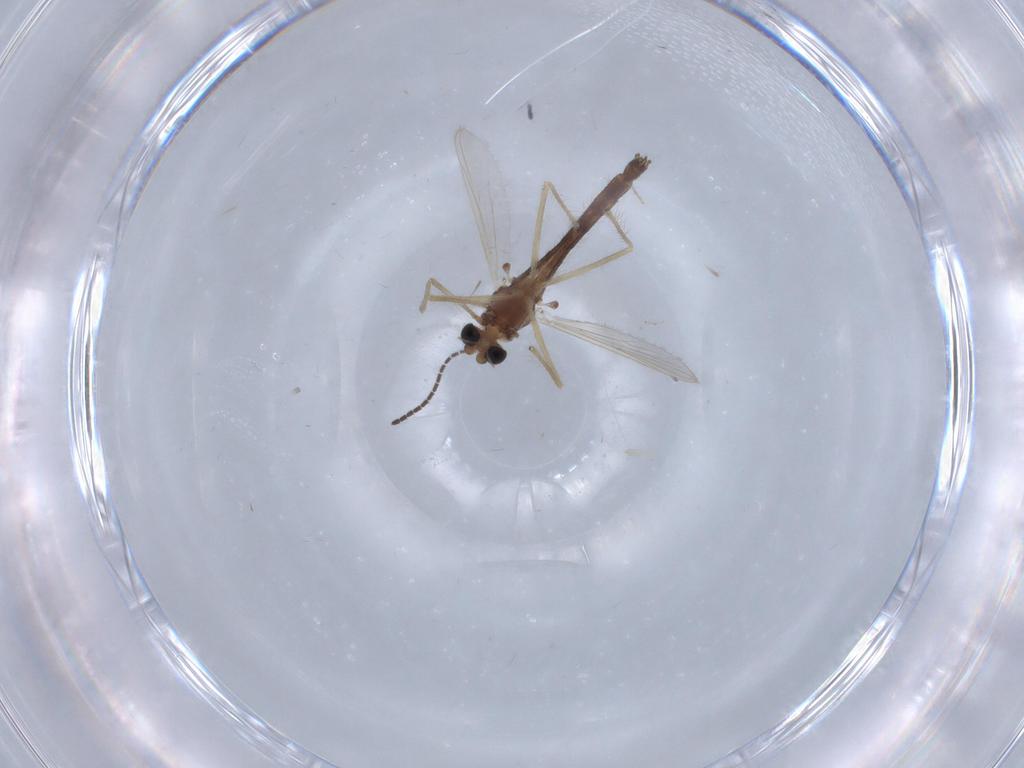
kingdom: Animalia
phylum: Arthropoda
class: Insecta
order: Diptera
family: Chironomidae
